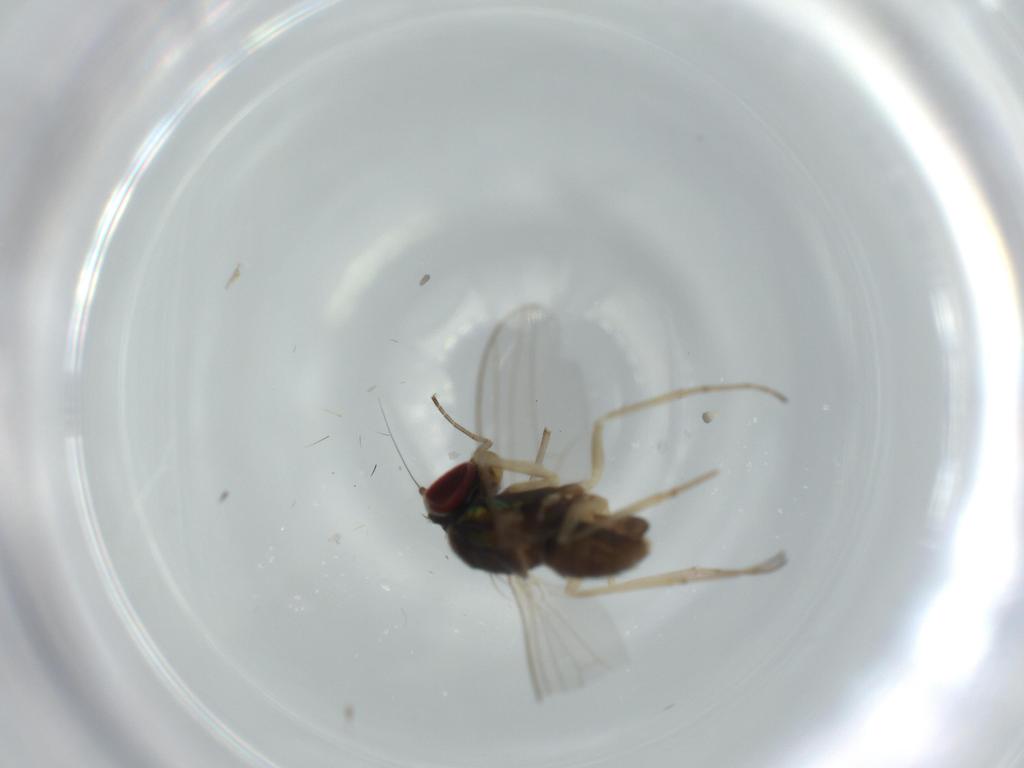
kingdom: Animalia
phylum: Arthropoda
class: Insecta
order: Diptera
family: Dolichopodidae
